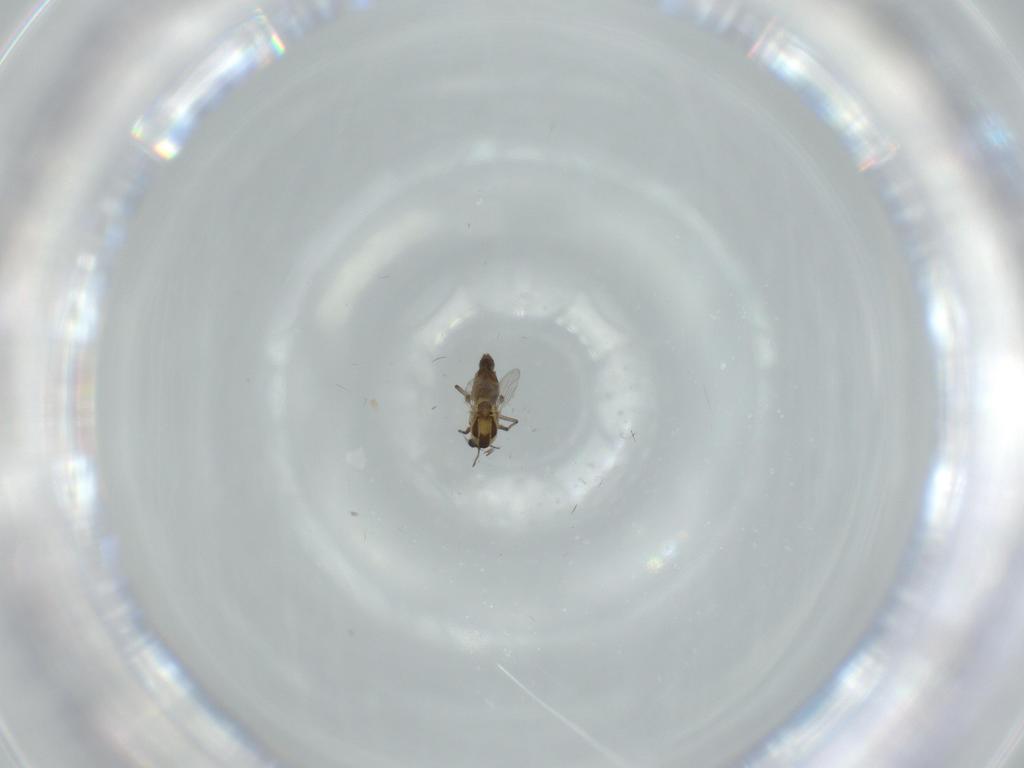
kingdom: Animalia
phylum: Arthropoda
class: Insecta
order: Diptera
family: Chironomidae
